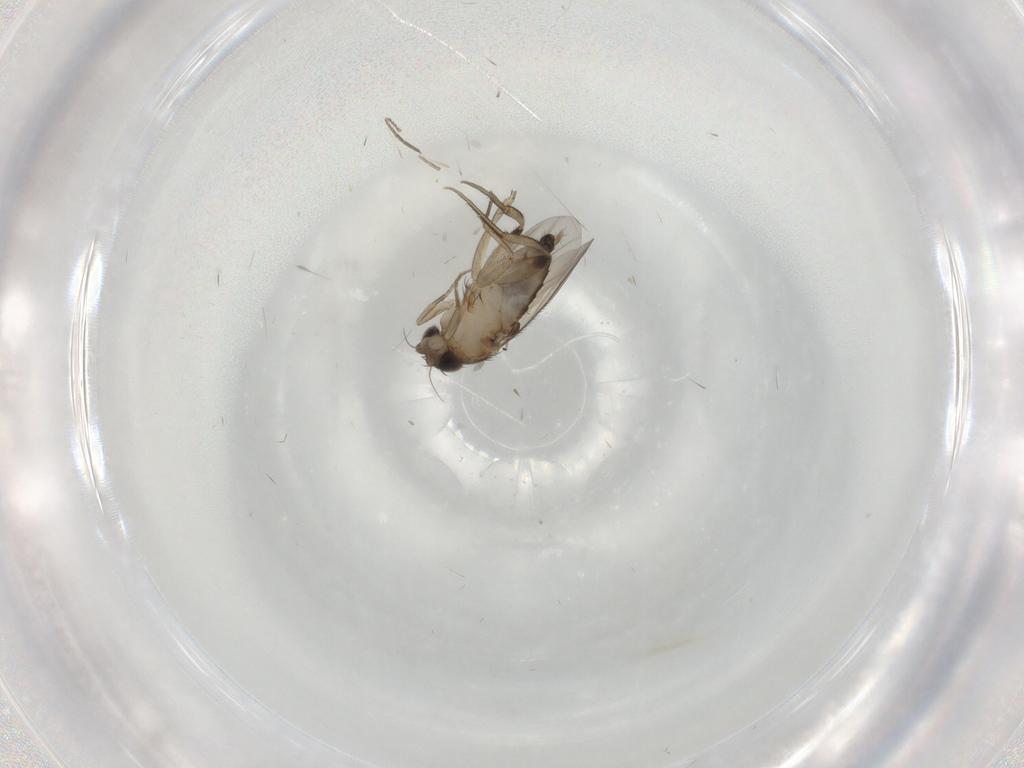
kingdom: Animalia
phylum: Arthropoda
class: Insecta
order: Diptera
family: Phoridae
